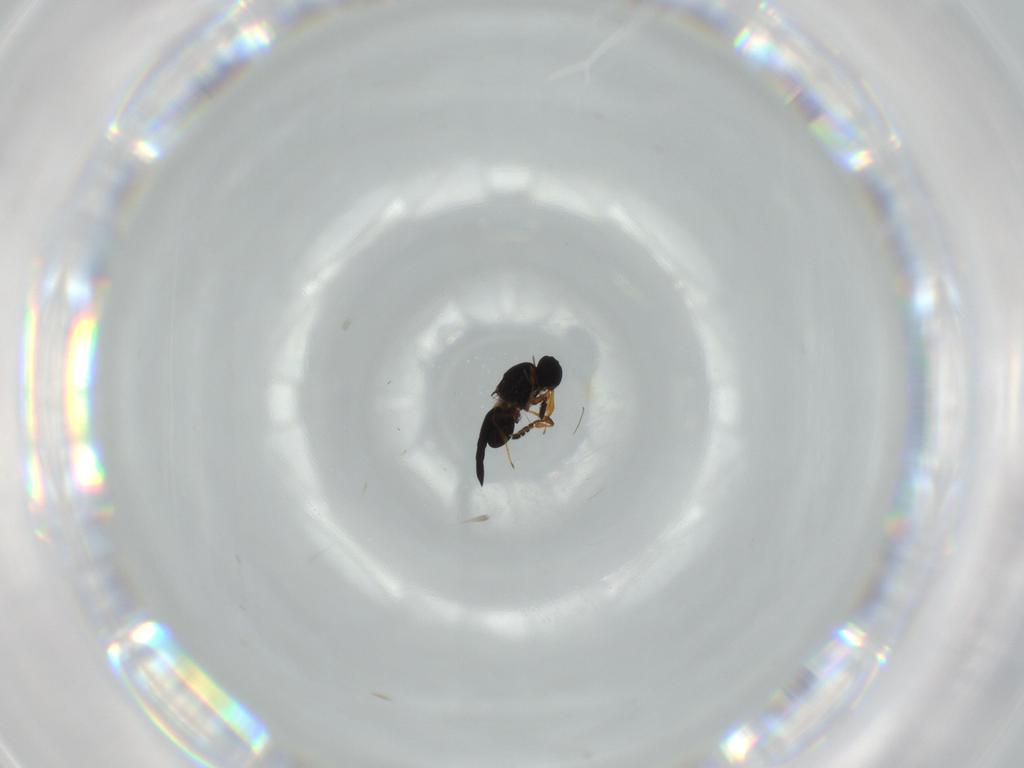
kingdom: Animalia
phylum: Arthropoda
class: Insecta
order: Hymenoptera
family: Platygastridae
